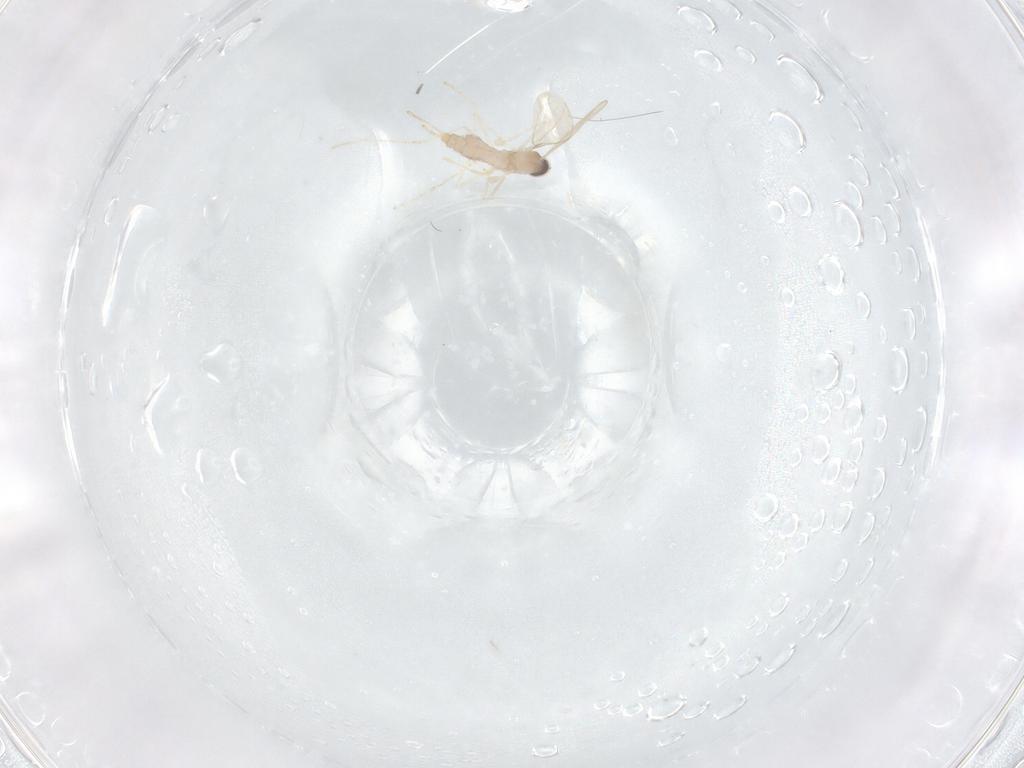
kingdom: Animalia
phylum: Arthropoda
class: Insecta
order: Diptera
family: Cecidomyiidae
